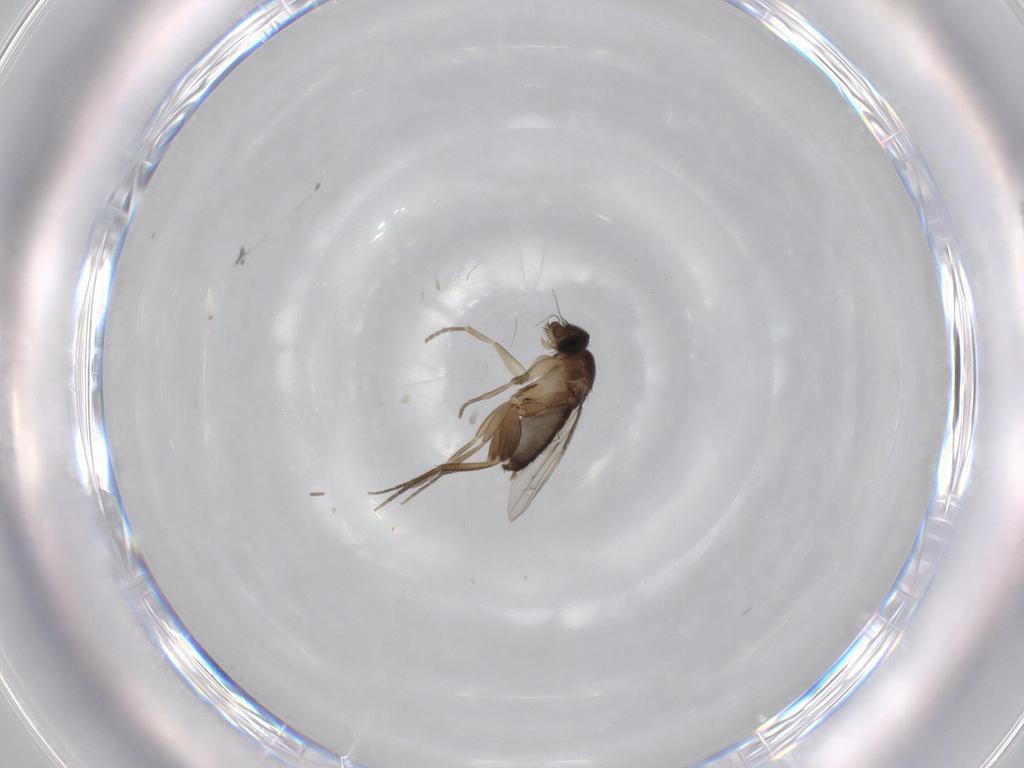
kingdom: Animalia
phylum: Arthropoda
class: Insecta
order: Diptera
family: Phoridae
